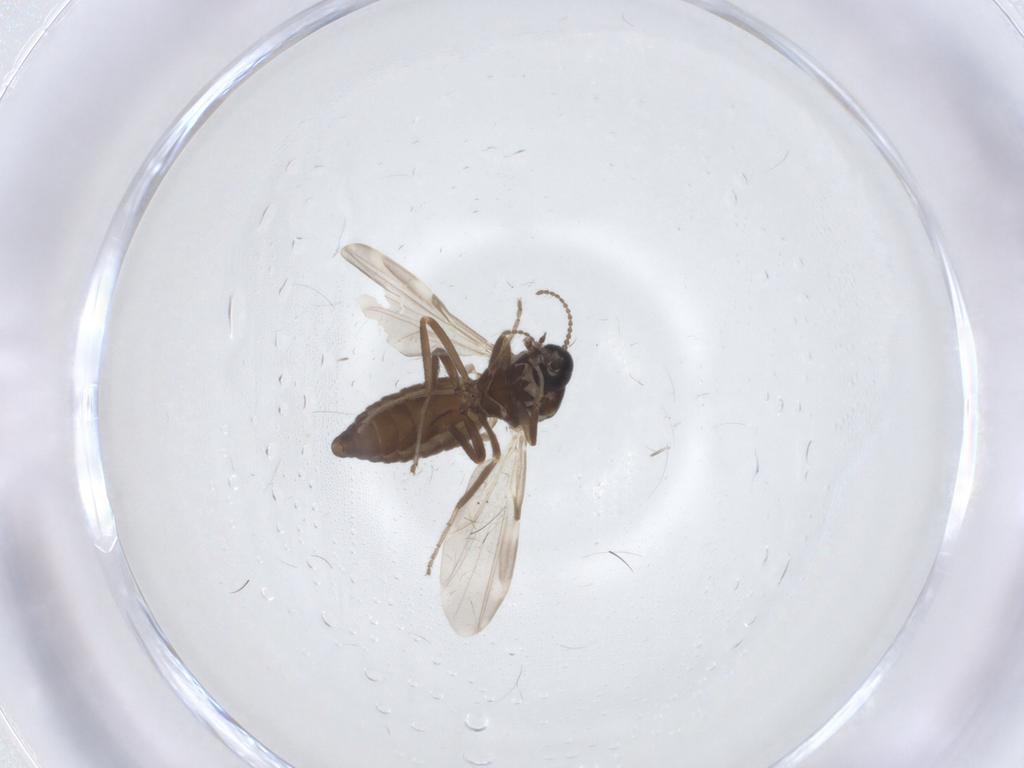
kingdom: Animalia
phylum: Arthropoda
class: Insecta
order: Diptera
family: Ceratopogonidae
